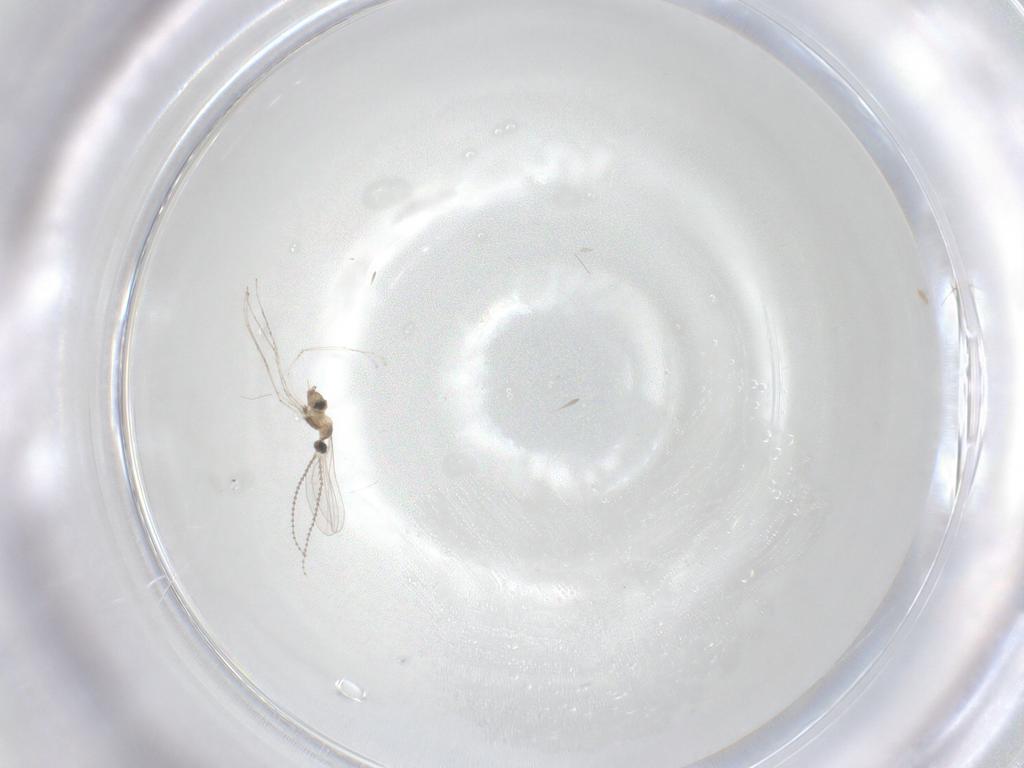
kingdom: Animalia
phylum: Arthropoda
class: Insecta
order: Diptera
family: Cecidomyiidae
